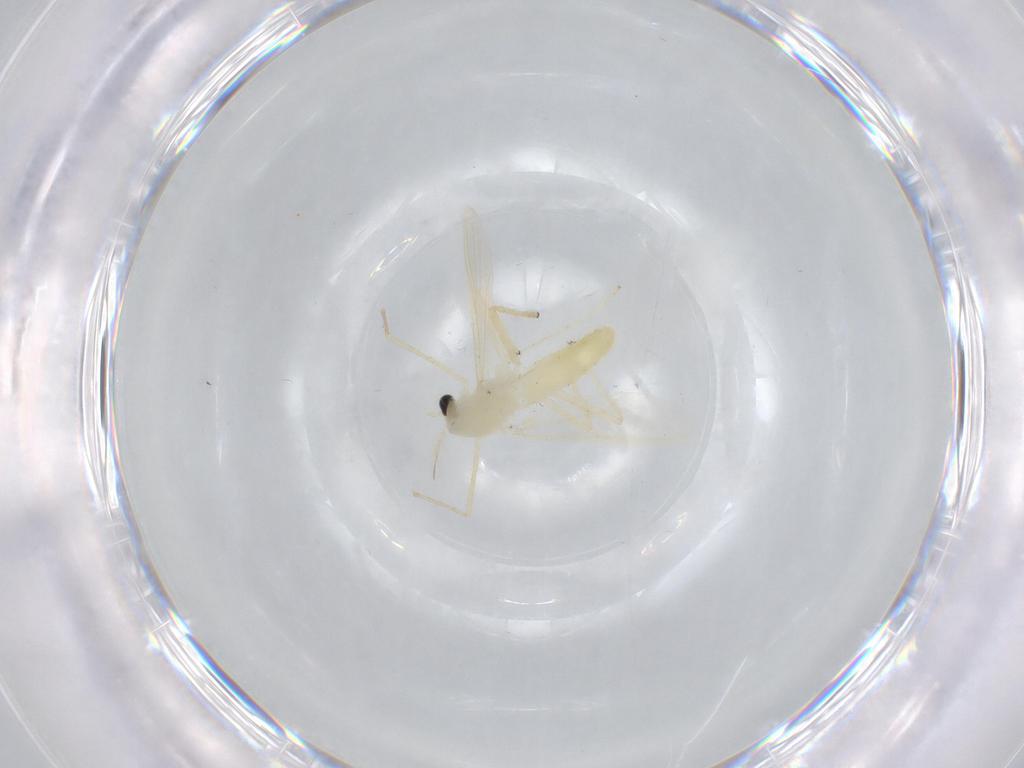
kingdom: Animalia
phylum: Arthropoda
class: Insecta
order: Diptera
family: Chironomidae
